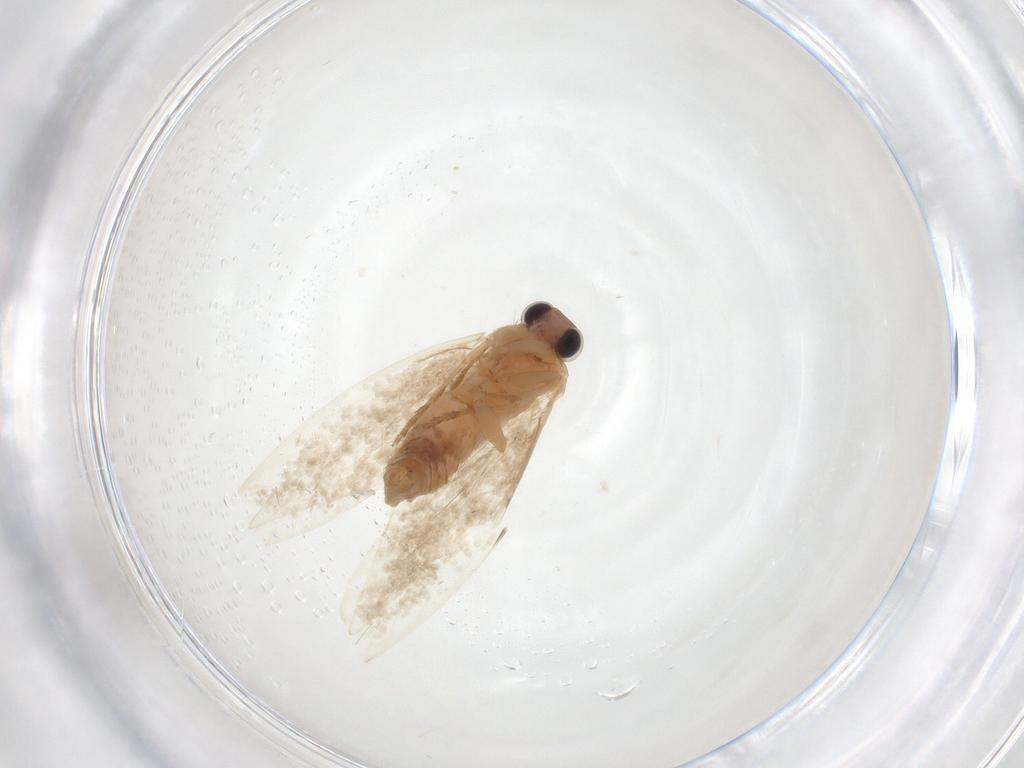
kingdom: Animalia
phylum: Arthropoda
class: Insecta
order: Lepidoptera
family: Nepticulidae
